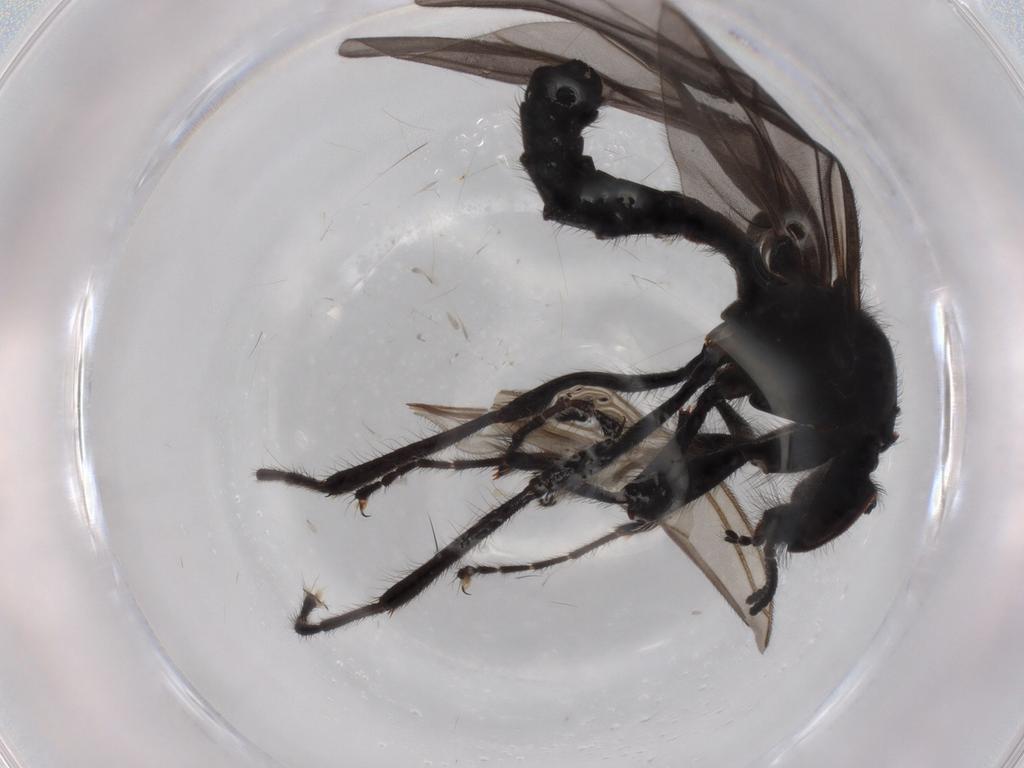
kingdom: Animalia
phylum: Arthropoda
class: Insecta
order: Diptera
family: Neriidae
